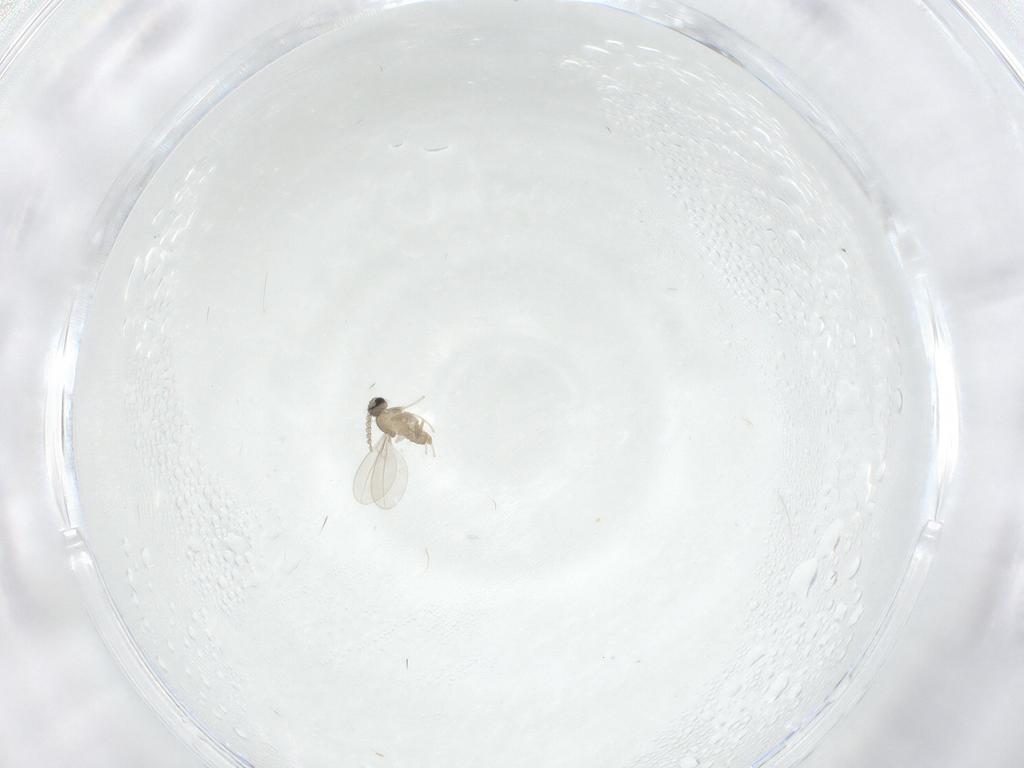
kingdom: Animalia
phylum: Arthropoda
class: Insecta
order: Diptera
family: Cecidomyiidae
